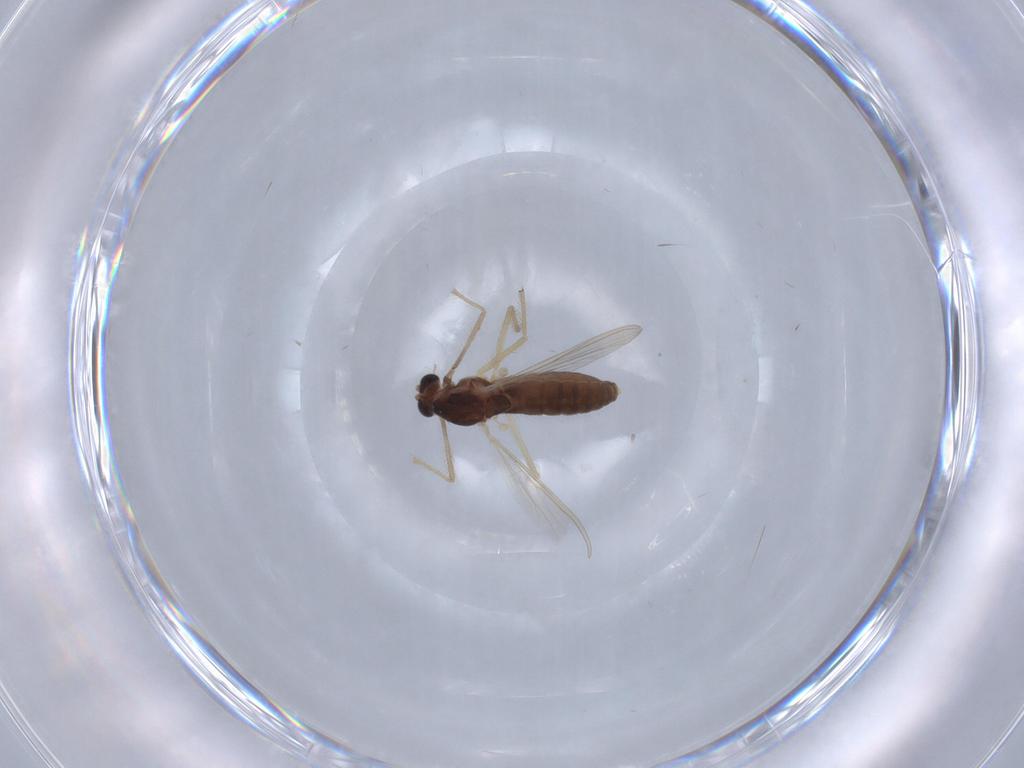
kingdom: Animalia
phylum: Arthropoda
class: Insecta
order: Diptera
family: Chironomidae
